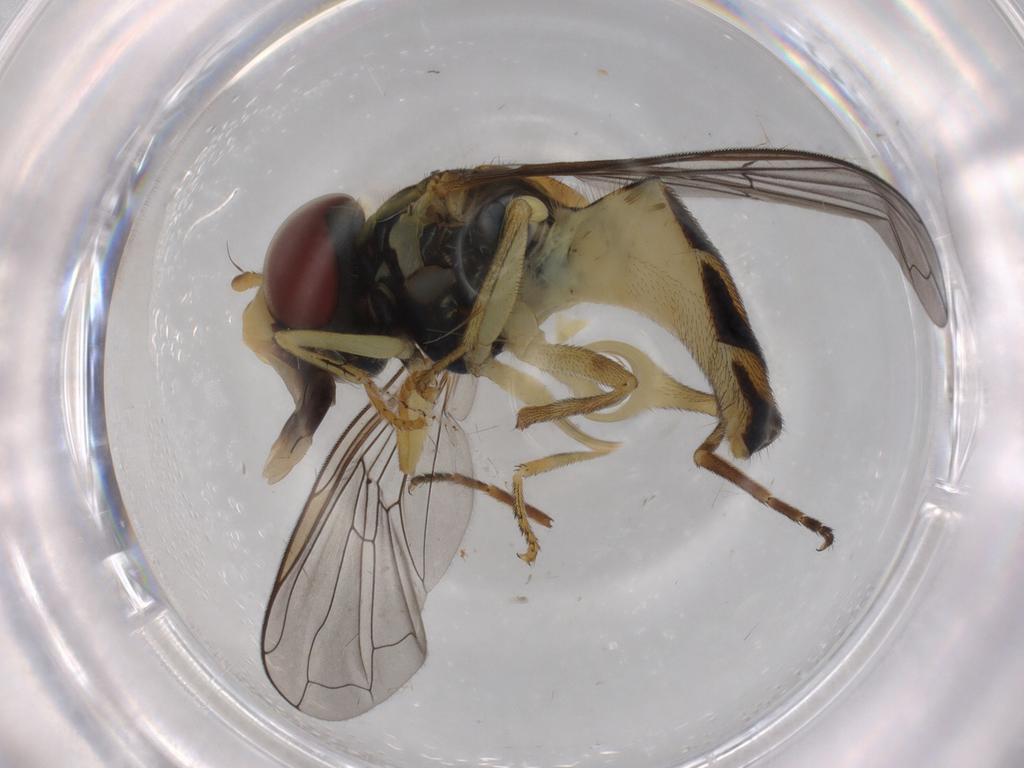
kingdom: Animalia
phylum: Arthropoda
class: Insecta
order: Diptera
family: Syrphidae
